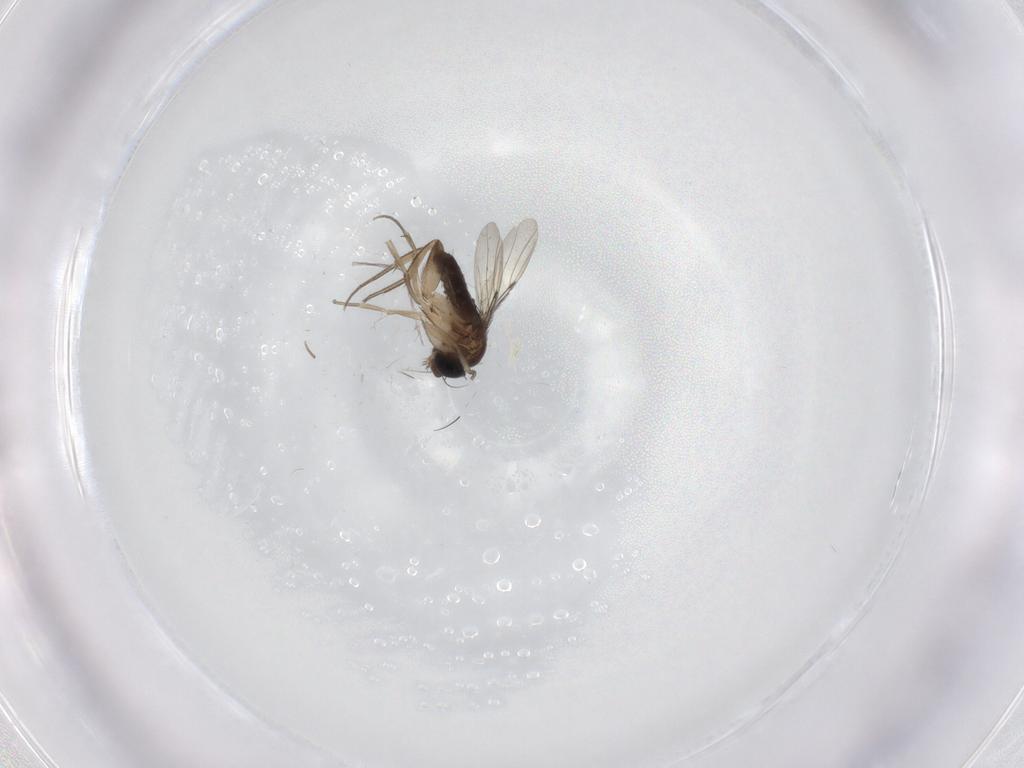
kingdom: Animalia
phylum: Arthropoda
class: Insecta
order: Diptera
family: Phoridae
